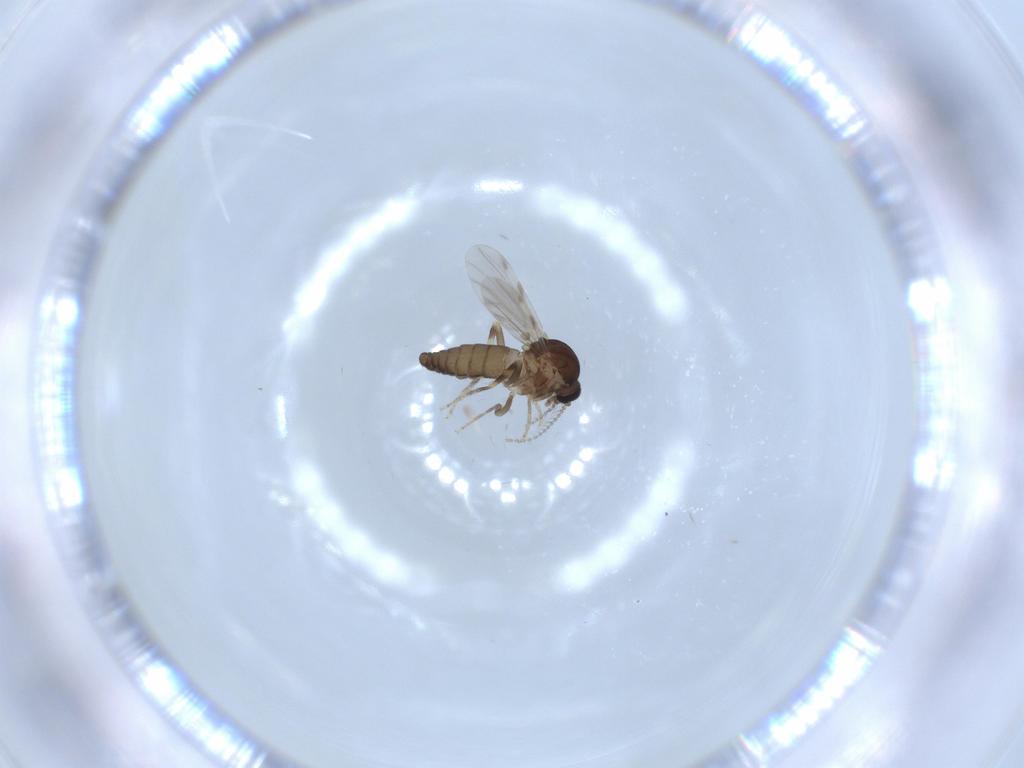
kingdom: Animalia
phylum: Arthropoda
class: Insecta
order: Diptera
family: Ceratopogonidae
